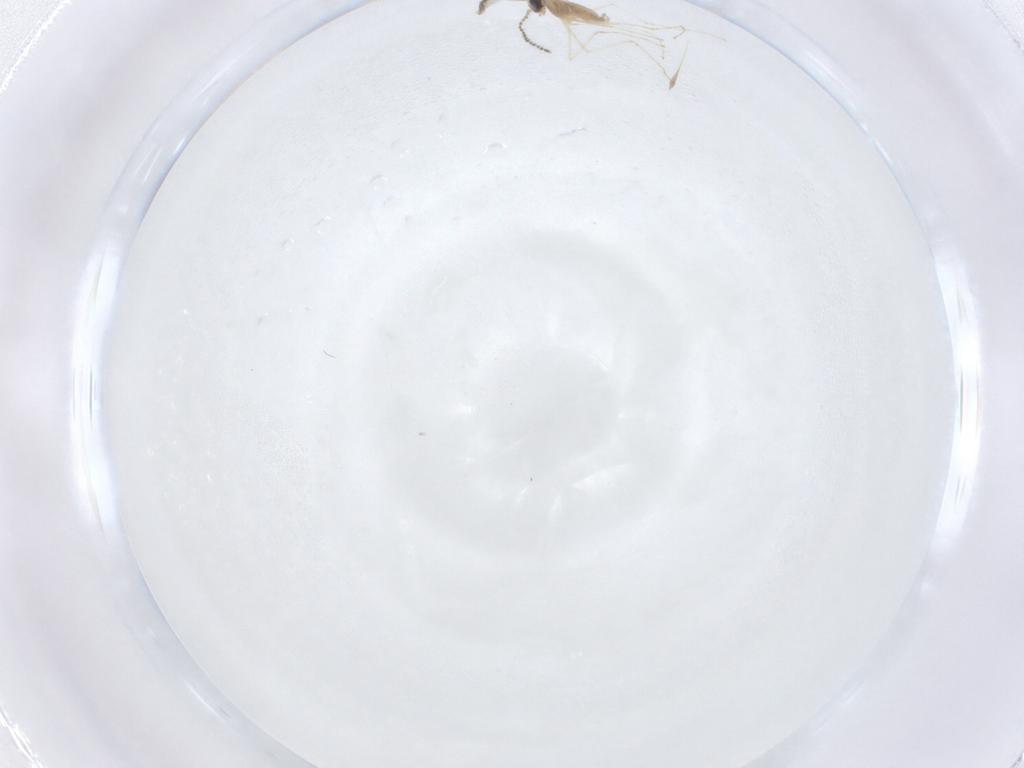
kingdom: Animalia
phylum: Arthropoda
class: Insecta
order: Diptera
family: Cecidomyiidae
